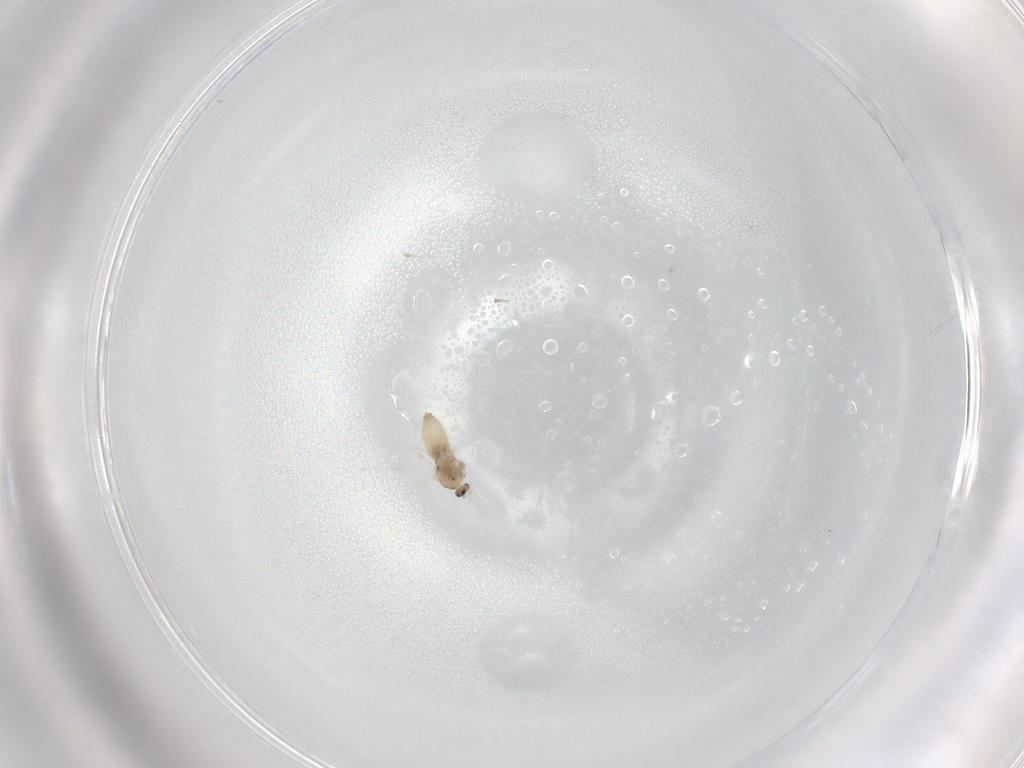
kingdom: Animalia
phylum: Arthropoda
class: Insecta
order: Diptera
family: Cecidomyiidae
